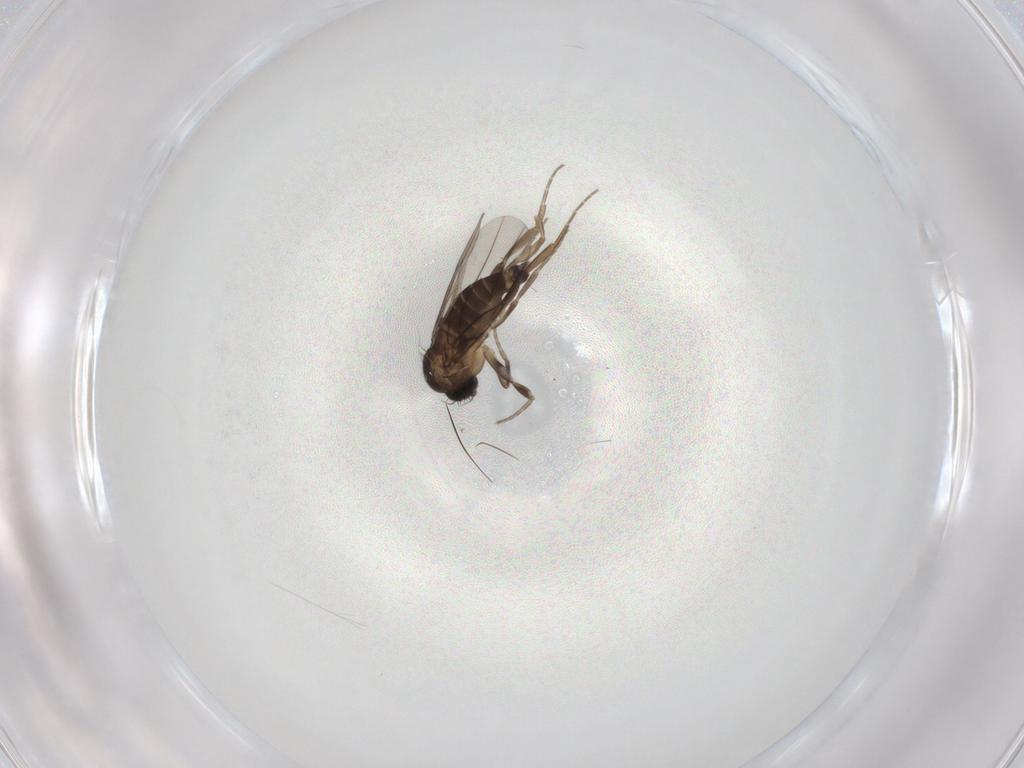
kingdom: Animalia
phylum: Arthropoda
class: Insecta
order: Diptera
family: Phoridae
